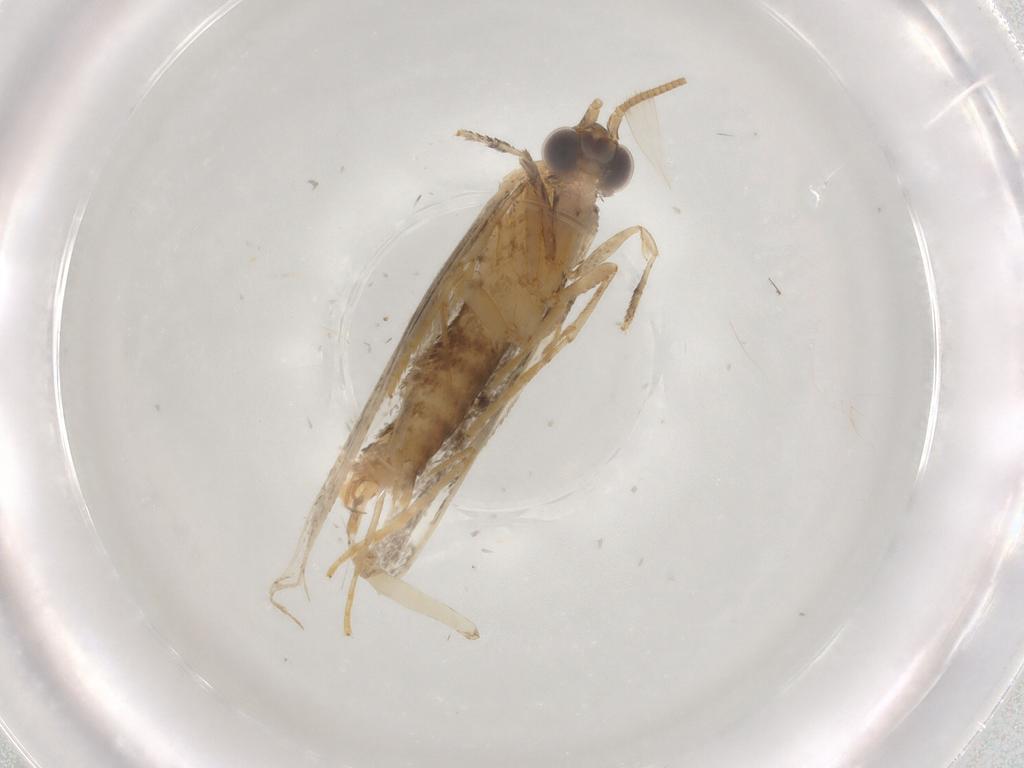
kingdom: Animalia
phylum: Arthropoda
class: Insecta
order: Lepidoptera
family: Tineidae
